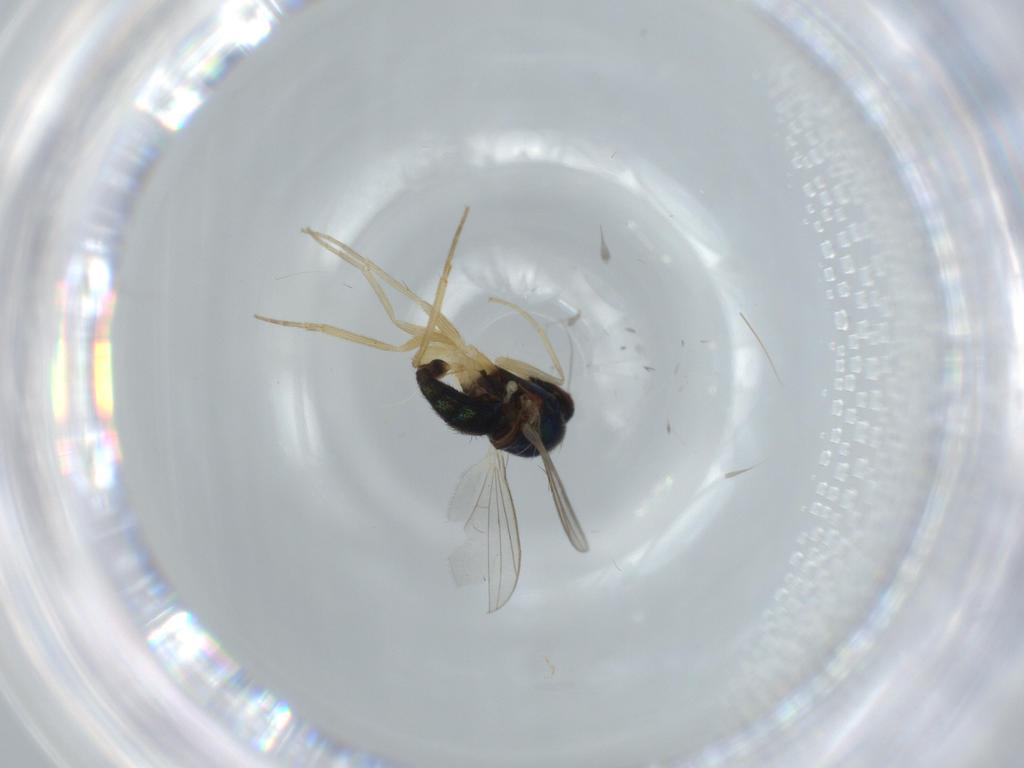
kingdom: Animalia
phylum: Arthropoda
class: Insecta
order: Diptera
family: Dolichopodidae
